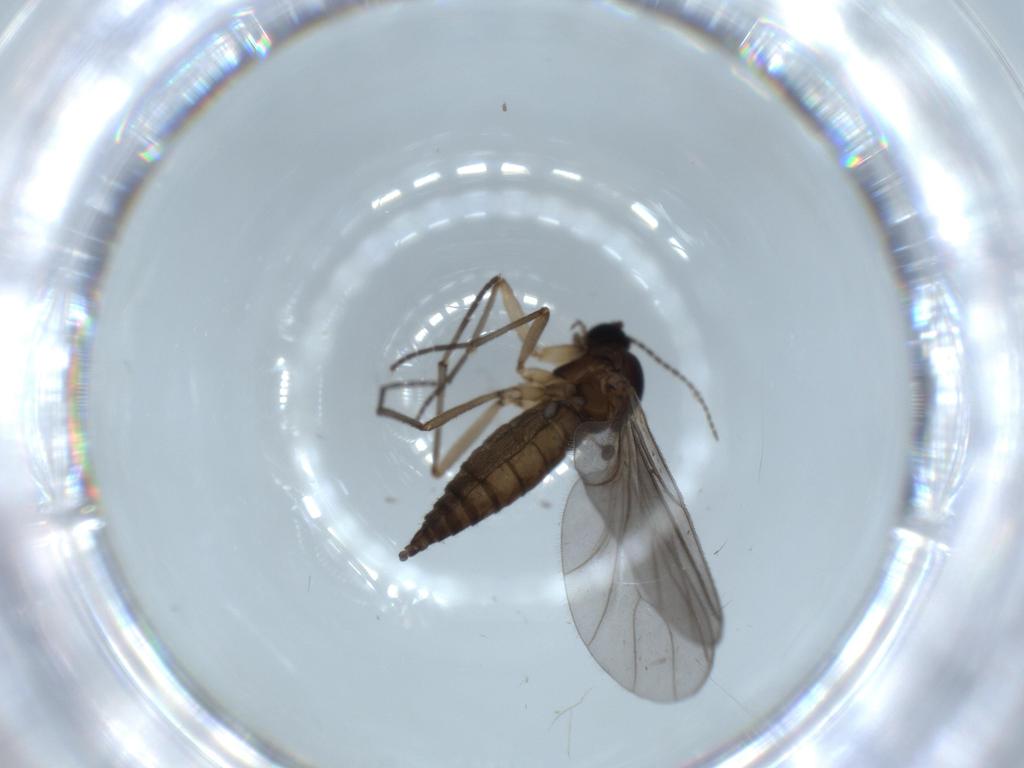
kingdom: Animalia
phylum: Arthropoda
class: Insecta
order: Diptera
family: Sciaridae
